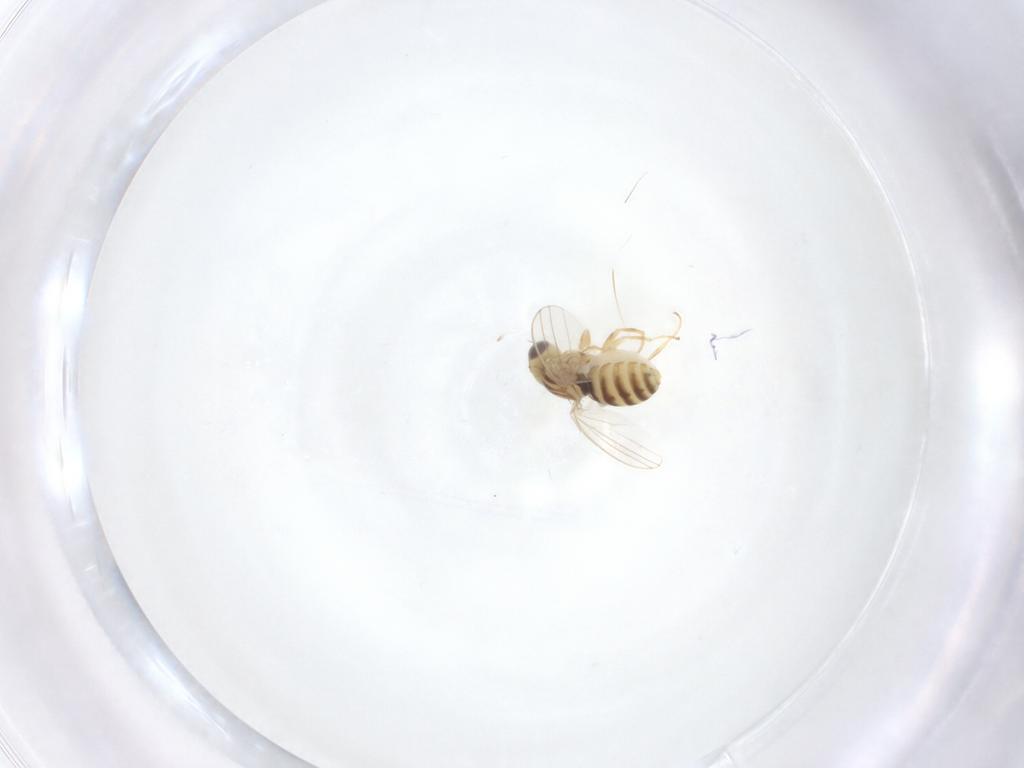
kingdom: Animalia
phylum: Arthropoda
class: Insecta
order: Diptera
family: Chyromyidae
